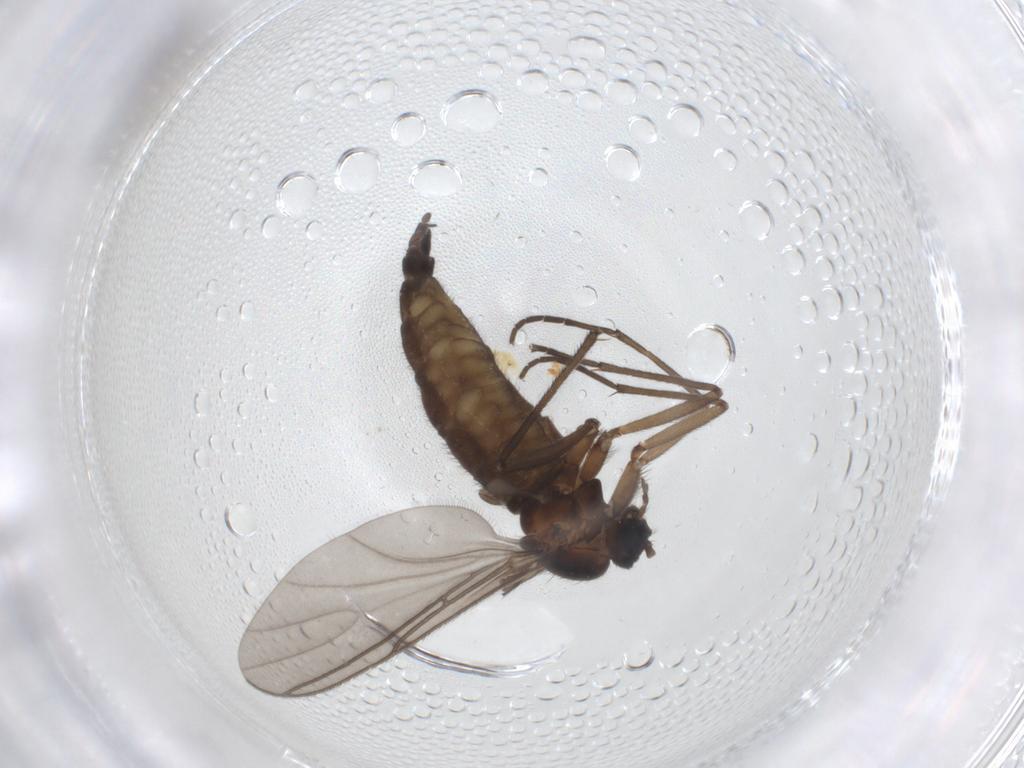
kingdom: Animalia
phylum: Arthropoda
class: Insecta
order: Diptera
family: Sciaridae
